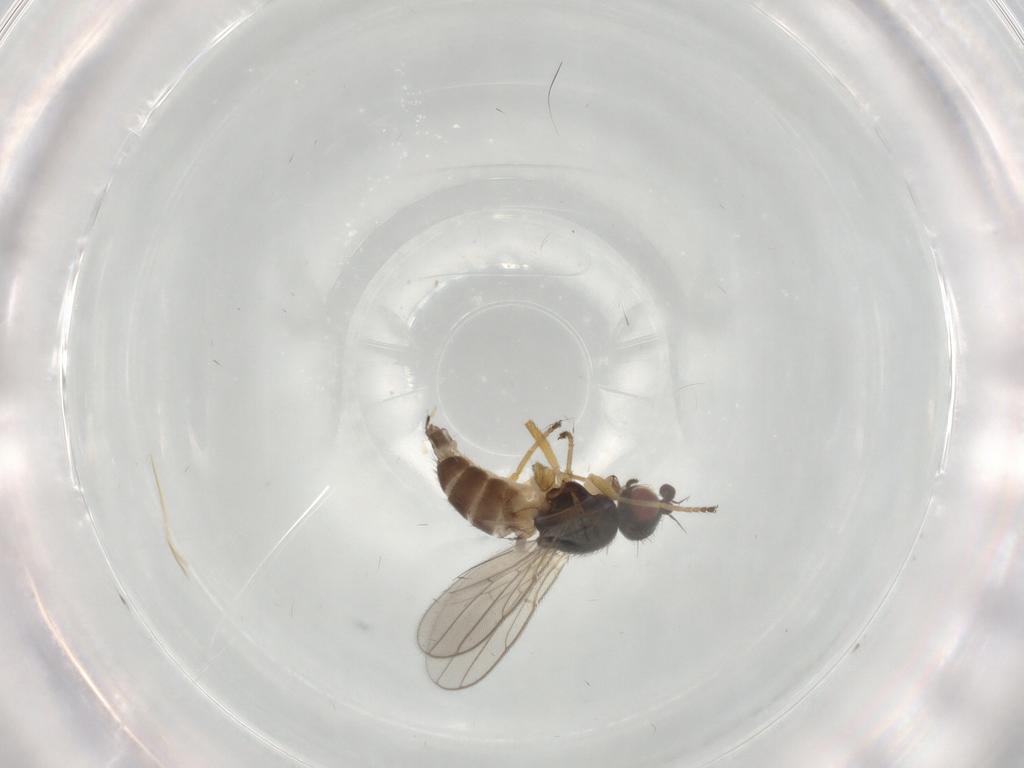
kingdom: Animalia
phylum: Arthropoda
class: Insecta
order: Diptera
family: Chloropidae
